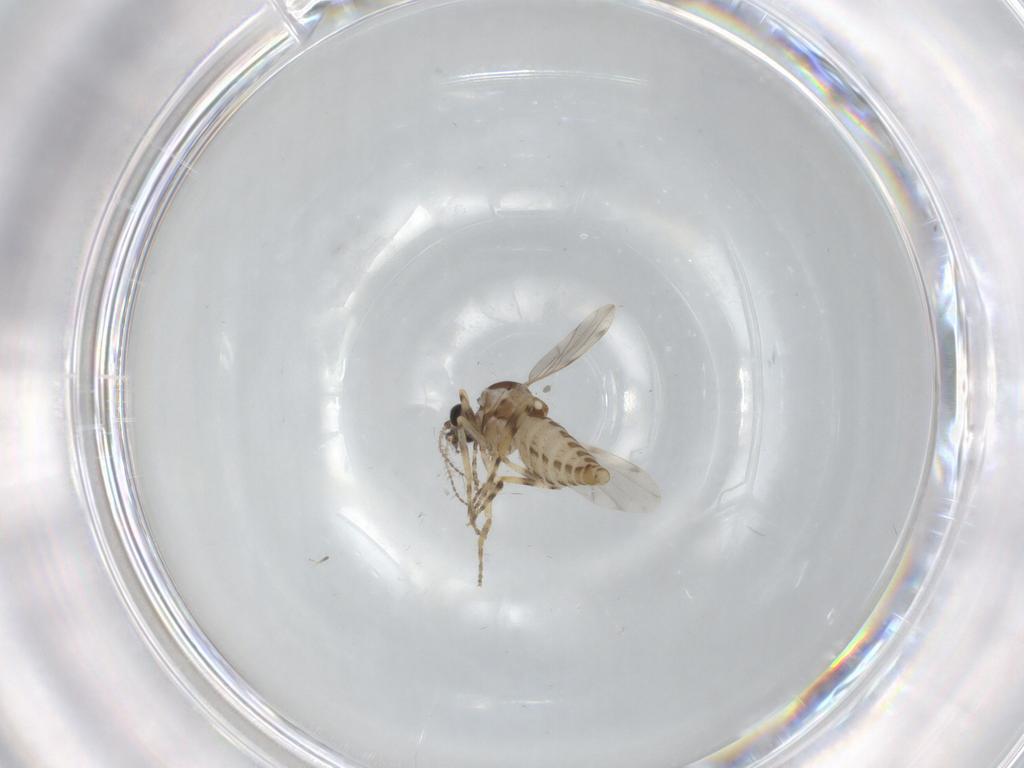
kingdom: Animalia
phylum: Arthropoda
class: Insecta
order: Diptera
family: Ceratopogonidae
